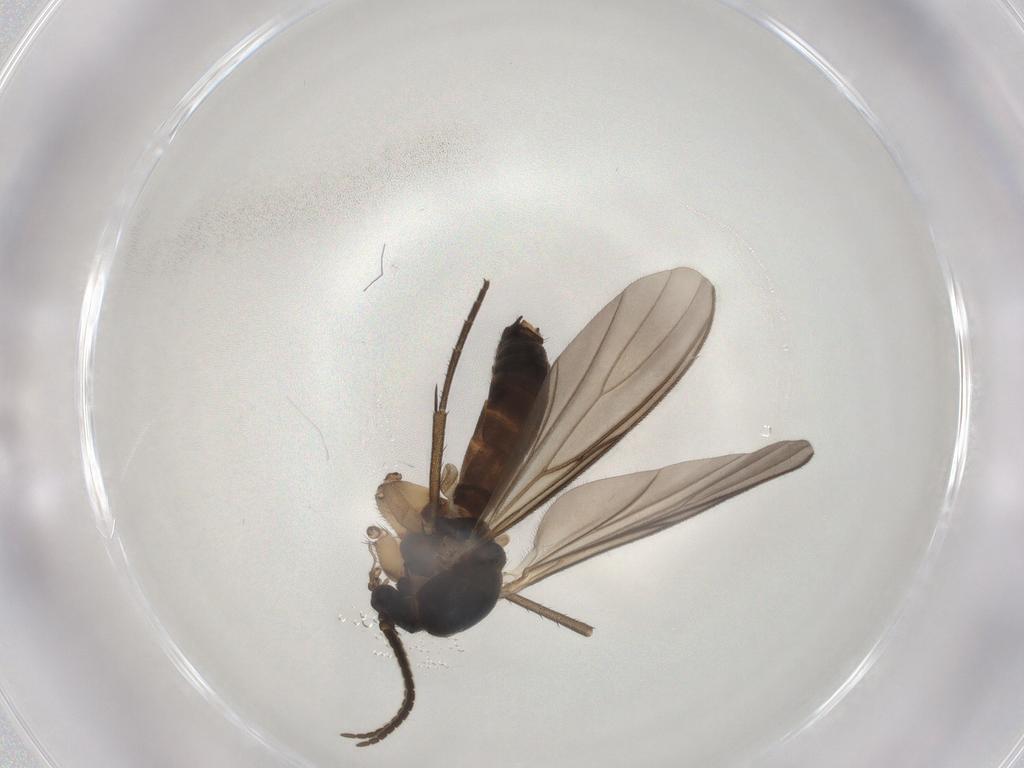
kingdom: Animalia
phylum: Arthropoda
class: Insecta
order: Diptera
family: Mycetophilidae
